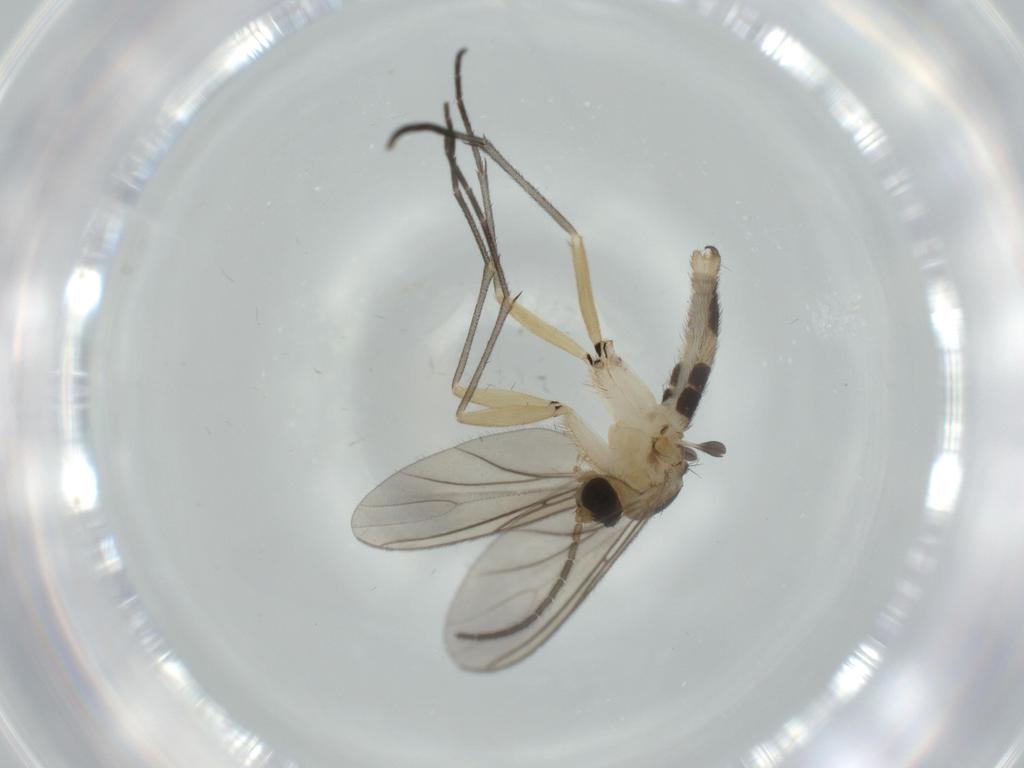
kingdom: Animalia
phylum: Arthropoda
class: Insecta
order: Diptera
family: Sciaridae
